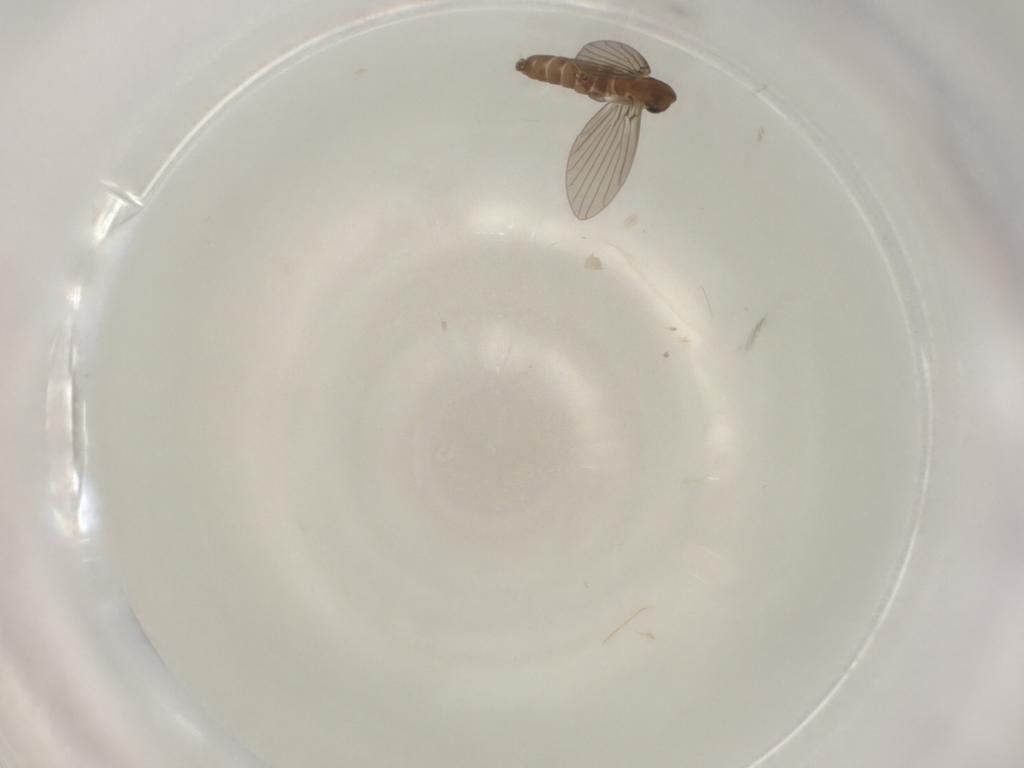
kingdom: Animalia
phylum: Arthropoda
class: Insecta
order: Diptera
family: Psychodidae
